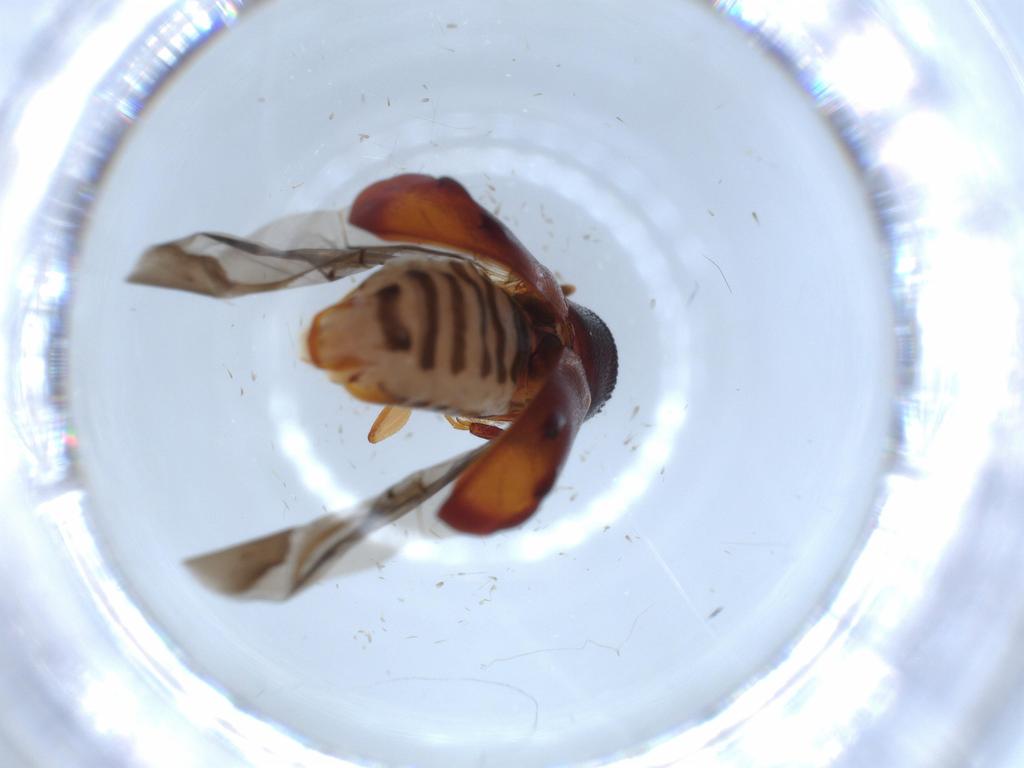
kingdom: Animalia
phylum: Arthropoda
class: Insecta
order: Coleoptera
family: Bostrichidae
